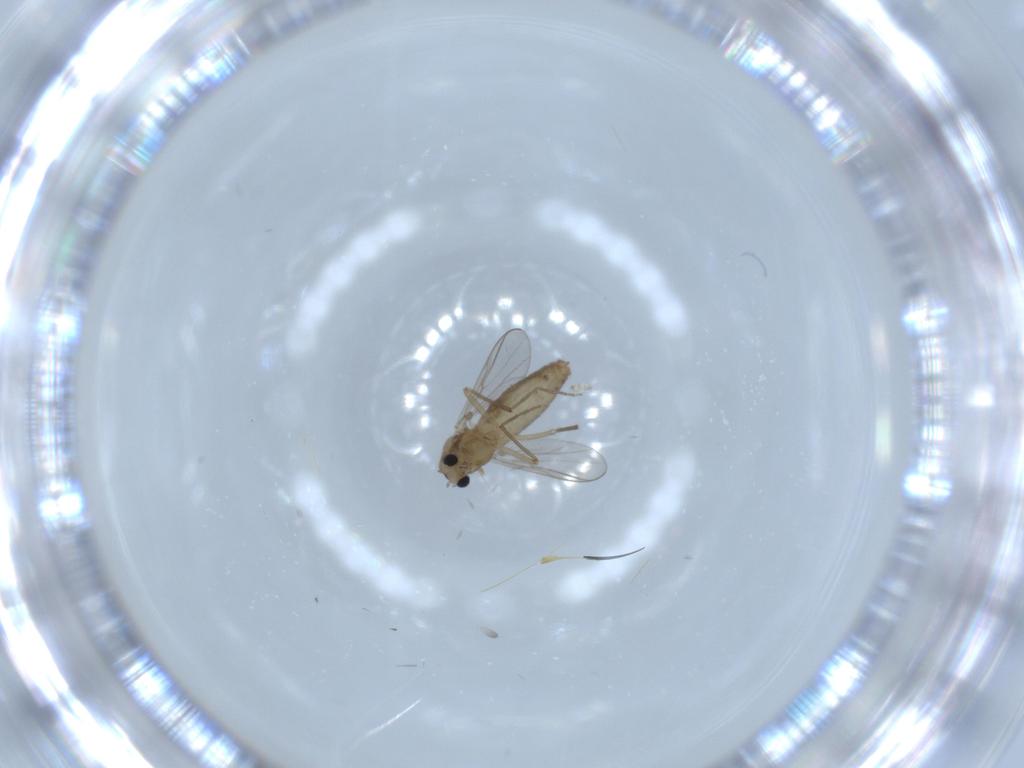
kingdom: Animalia
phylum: Arthropoda
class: Insecta
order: Diptera
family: Chironomidae
